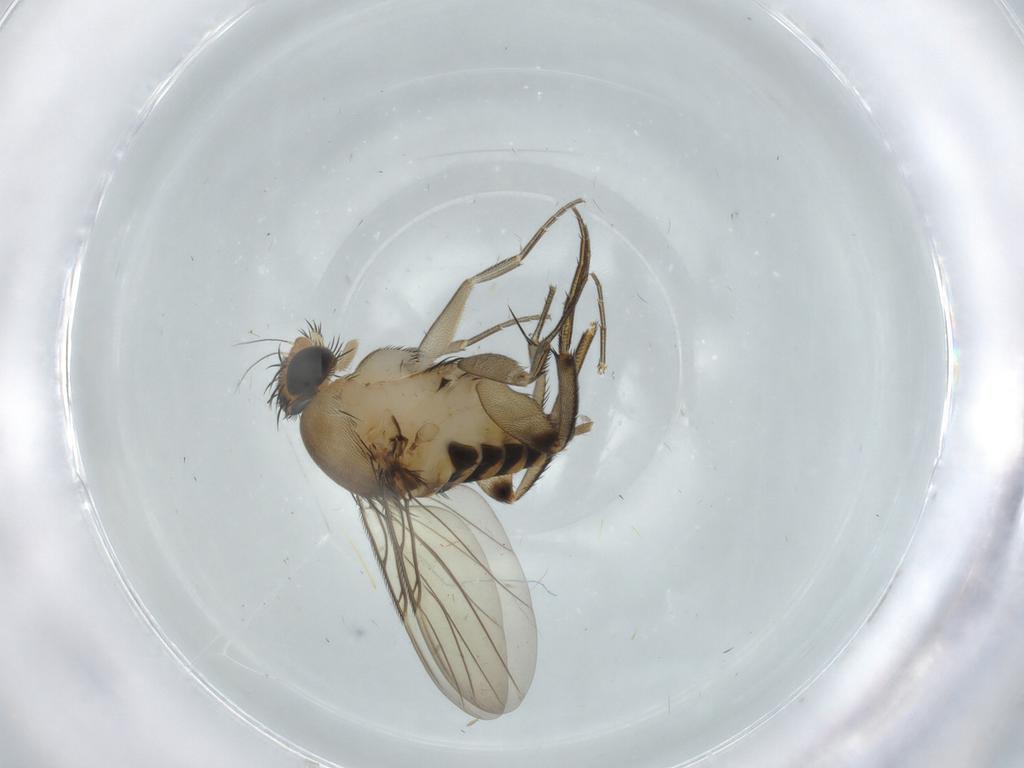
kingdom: Animalia
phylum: Arthropoda
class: Insecta
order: Diptera
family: Phoridae
